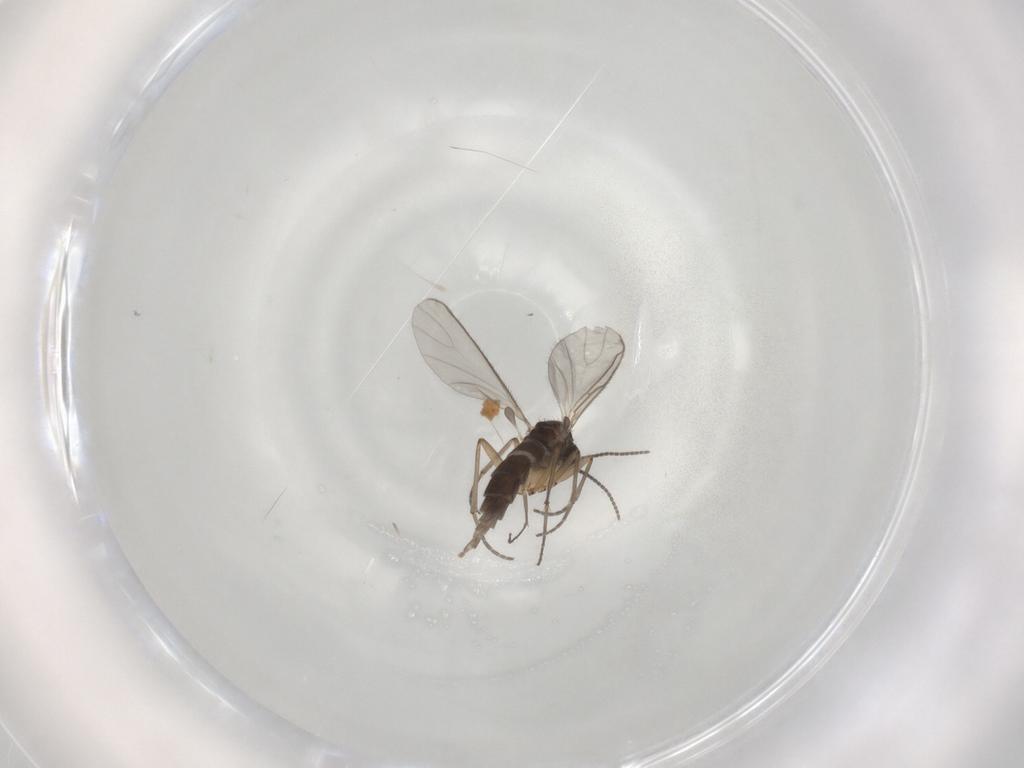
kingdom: Animalia
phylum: Arthropoda
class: Insecta
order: Diptera
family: Sciaridae
